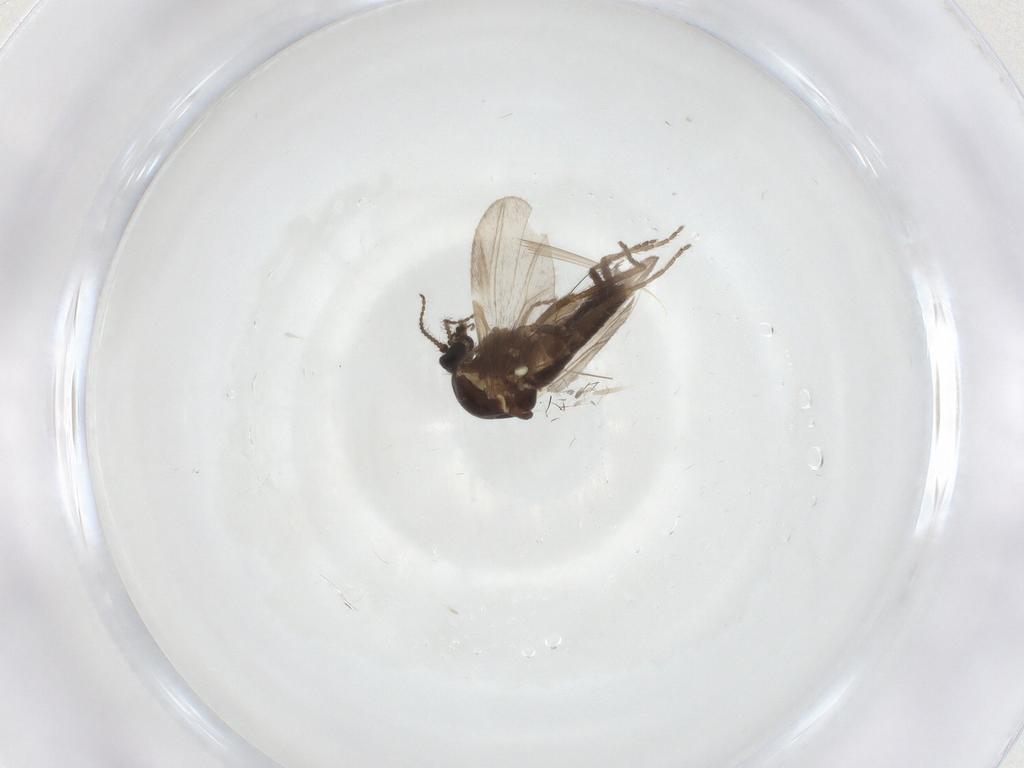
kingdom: Animalia
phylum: Arthropoda
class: Insecta
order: Diptera
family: Ceratopogonidae
